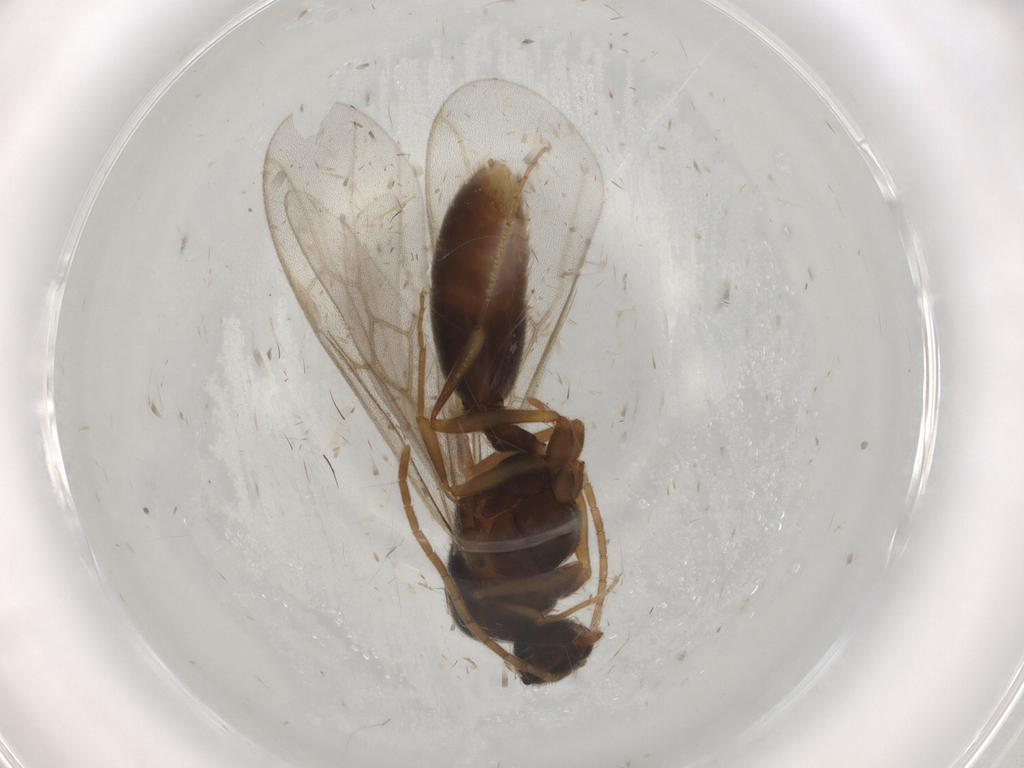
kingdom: Animalia
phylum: Arthropoda
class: Insecta
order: Hymenoptera
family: Formicidae
